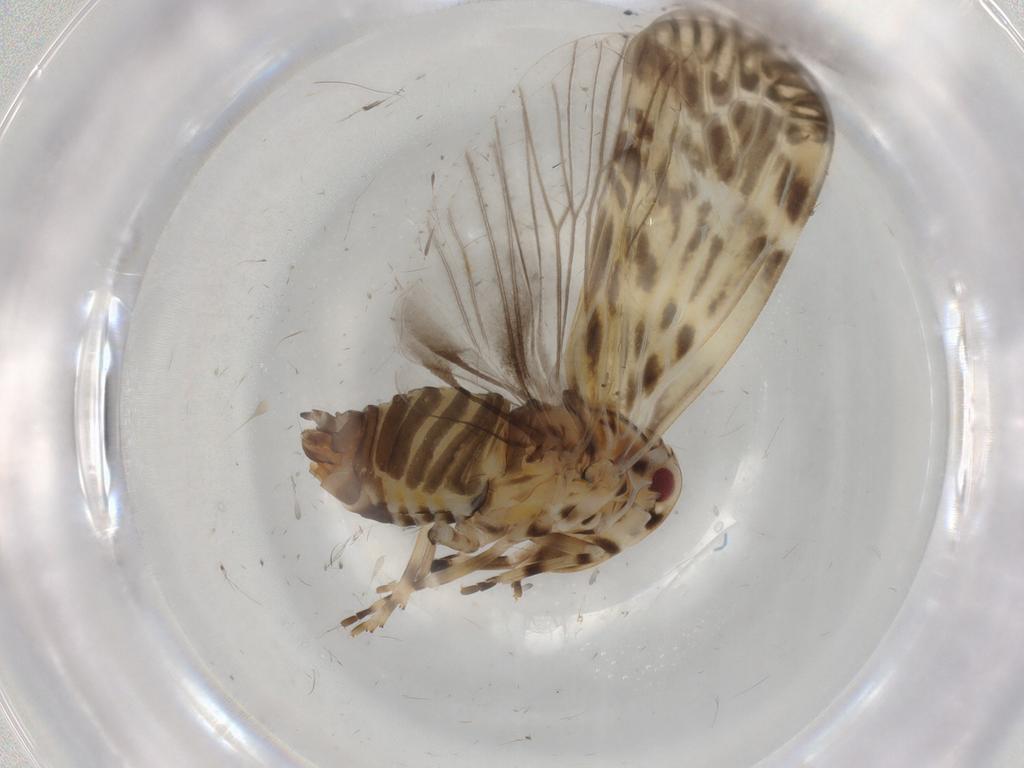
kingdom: Animalia
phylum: Arthropoda
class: Insecta
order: Hemiptera
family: Derbidae
